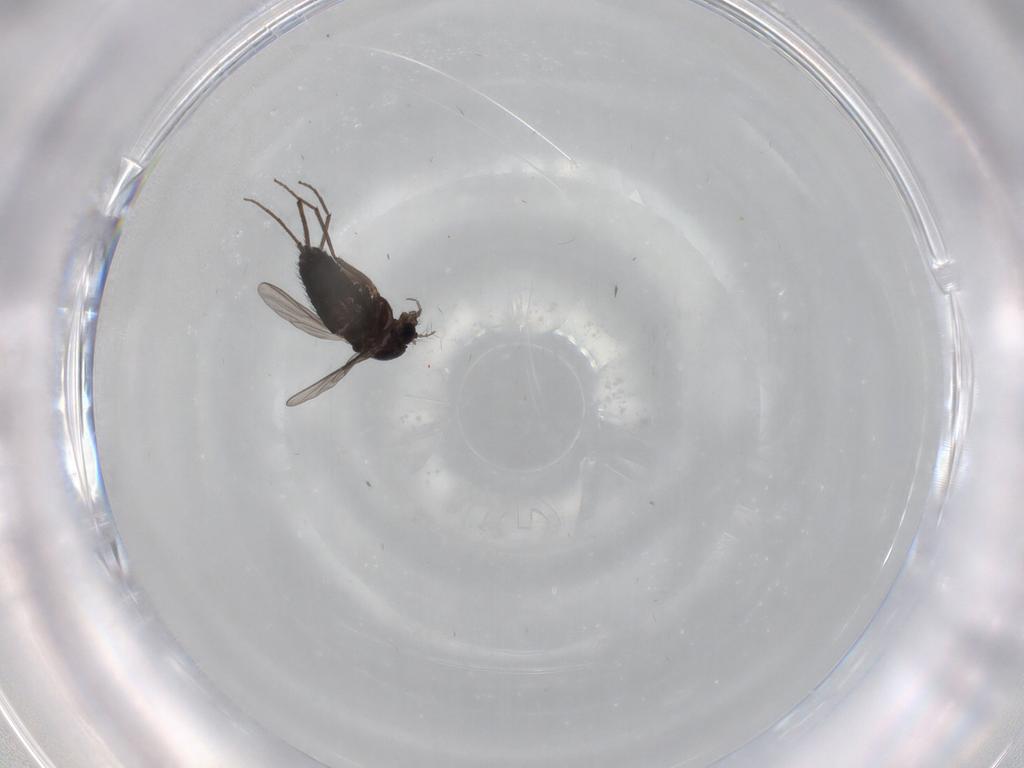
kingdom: Animalia
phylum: Arthropoda
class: Insecta
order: Diptera
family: Chironomidae
